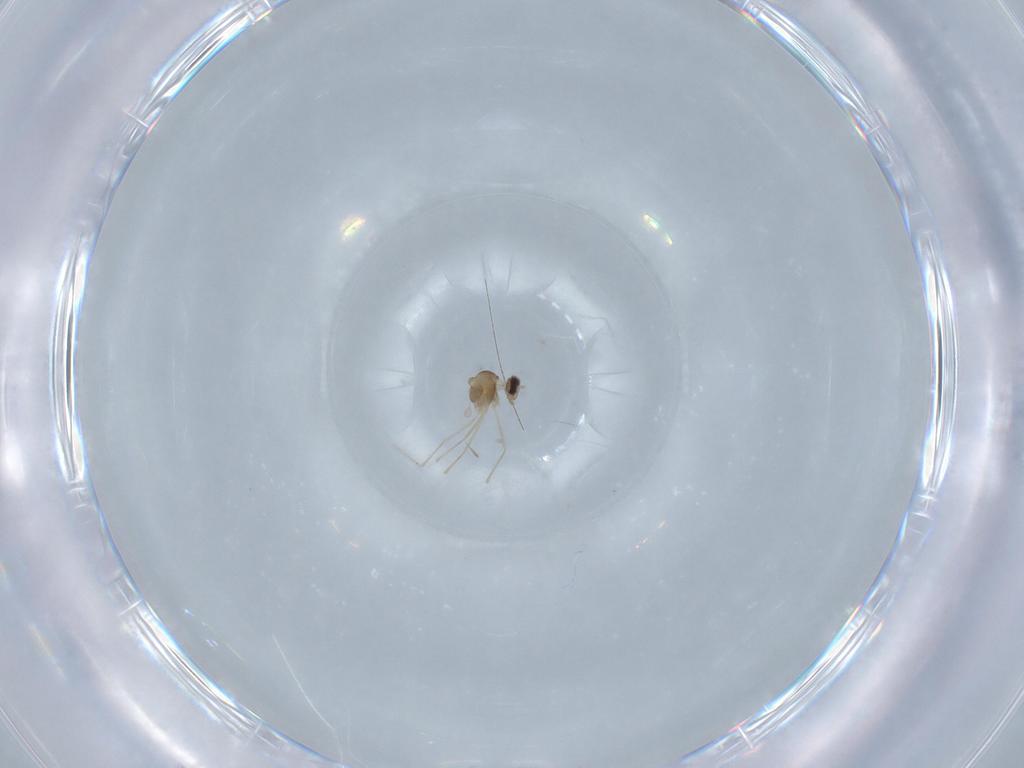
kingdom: Animalia
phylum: Arthropoda
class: Insecta
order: Diptera
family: Cecidomyiidae
